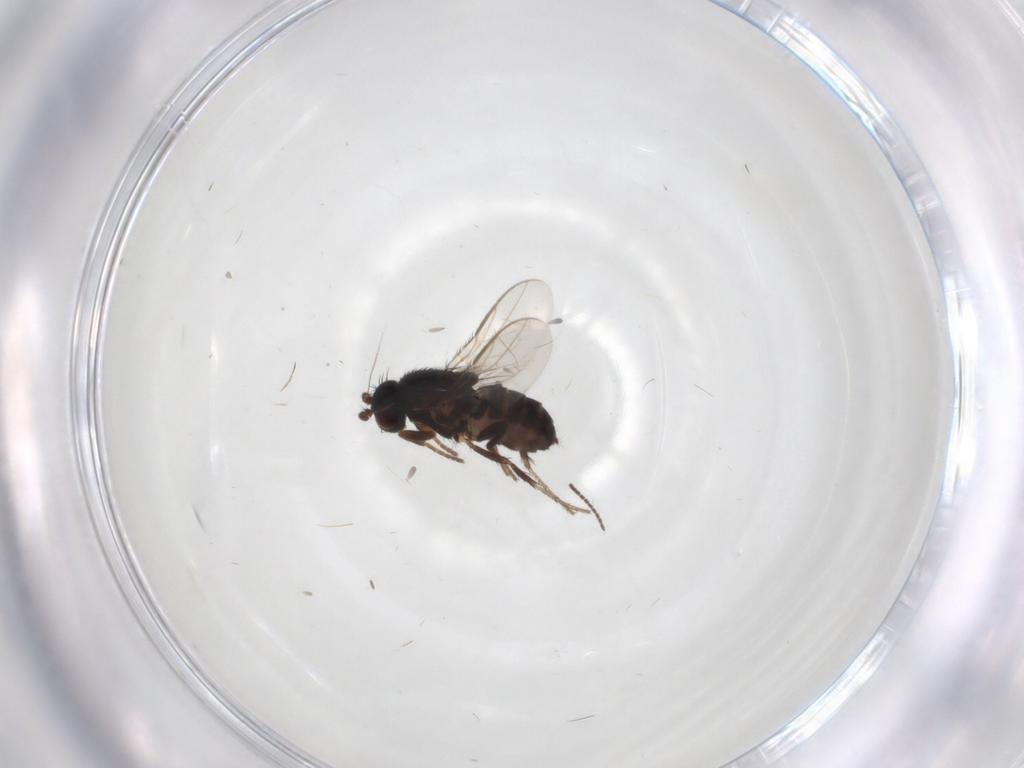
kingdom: Animalia
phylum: Arthropoda
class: Insecta
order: Diptera
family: Sphaeroceridae
